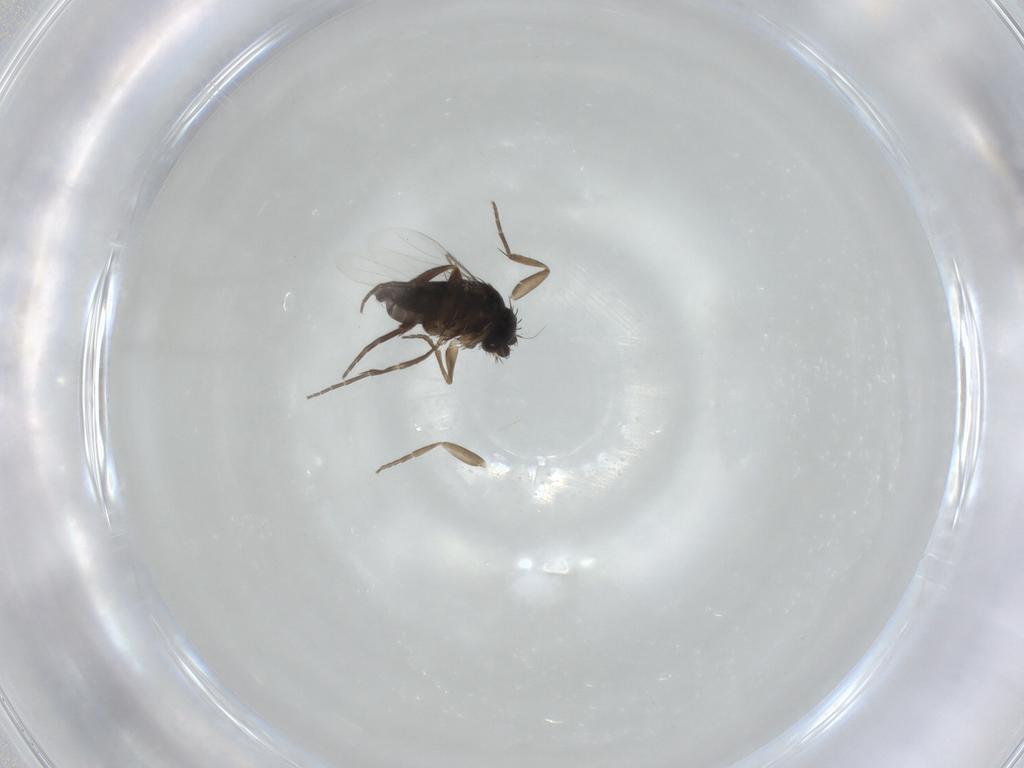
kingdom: Animalia
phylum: Arthropoda
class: Insecta
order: Diptera
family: Phoridae
